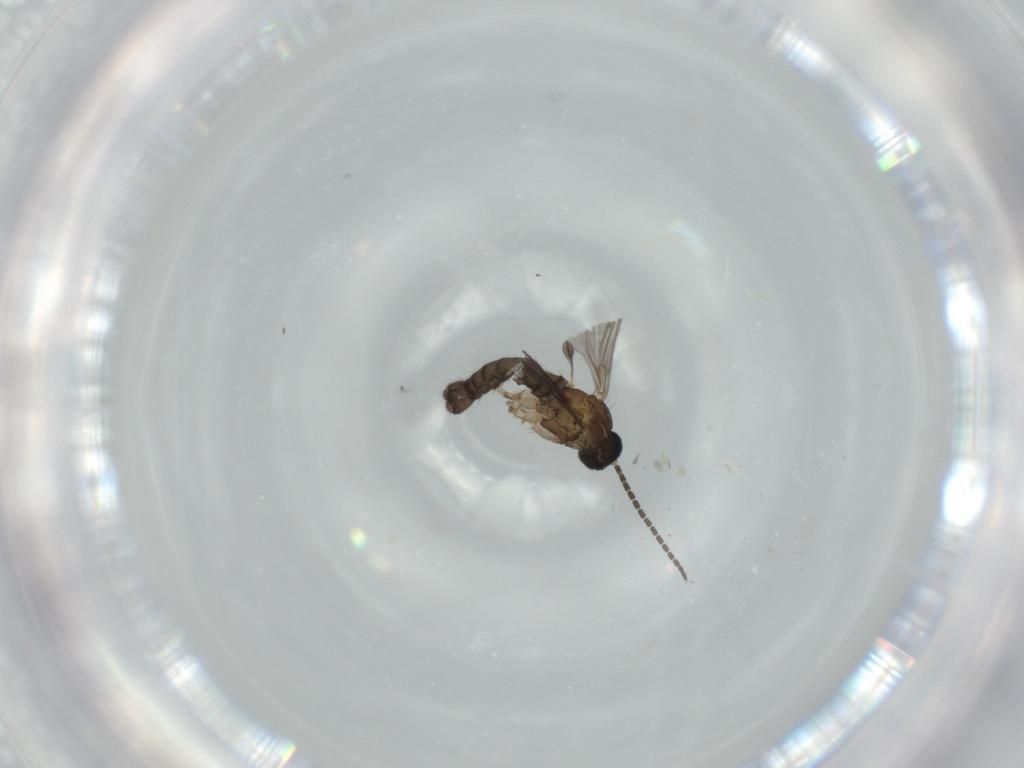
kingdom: Animalia
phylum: Arthropoda
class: Insecta
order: Diptera
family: Sciaridae
